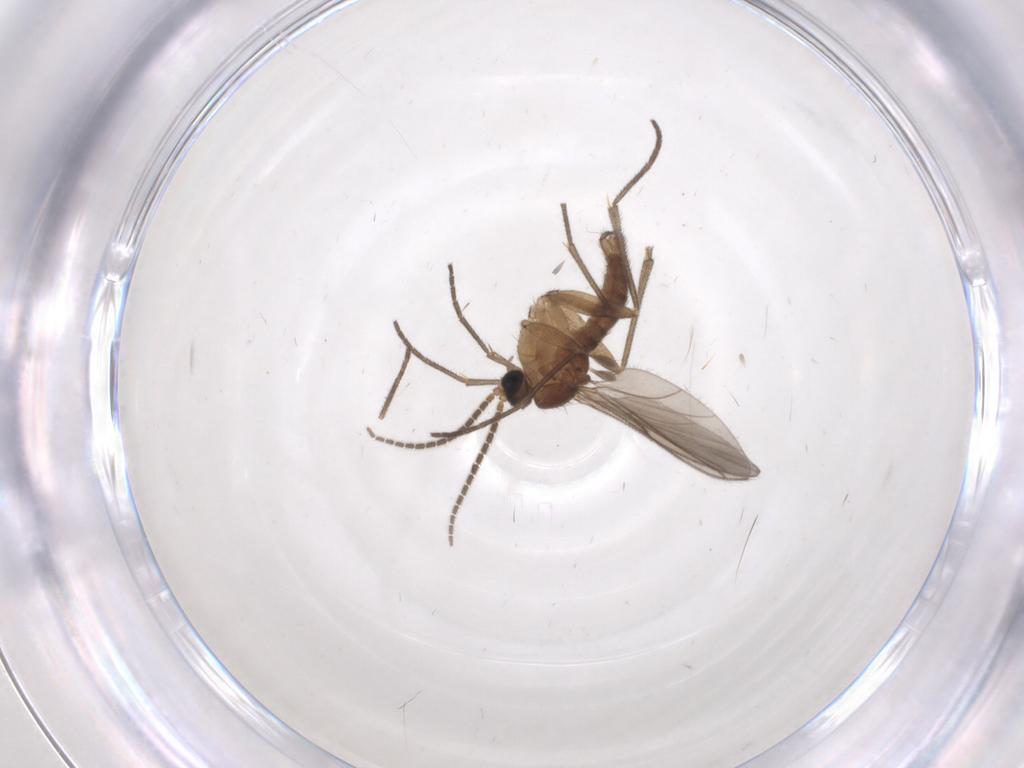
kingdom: Animalia
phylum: Arthropoda
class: Insecta
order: Diptera
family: Sciaridae
